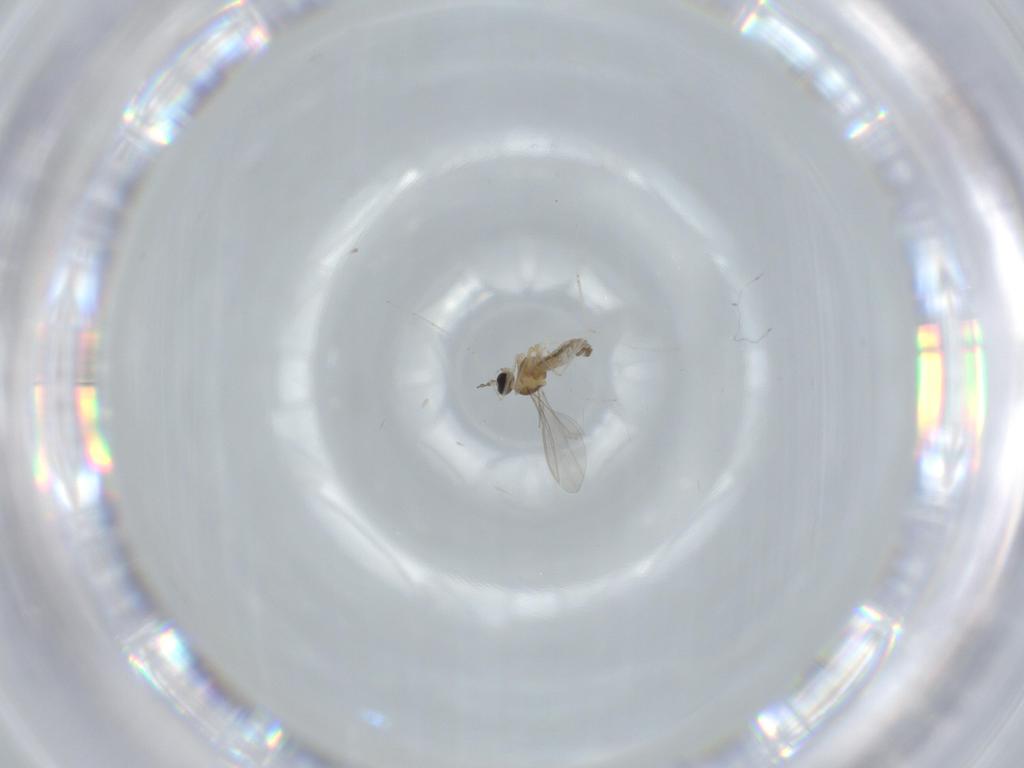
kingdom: Animalia
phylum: Arthropoda
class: Insecta
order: Diptera
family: Cecidomyiidae
